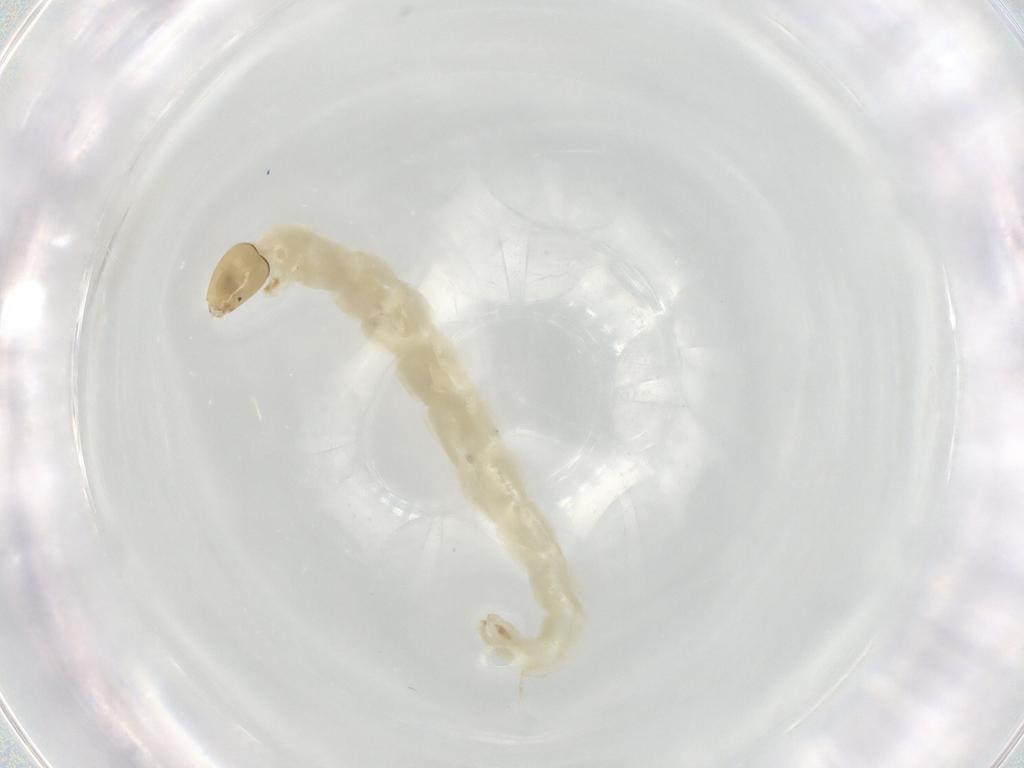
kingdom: Animalia
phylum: Arthropoda
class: Insecta
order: Diptera
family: Chironomidae
